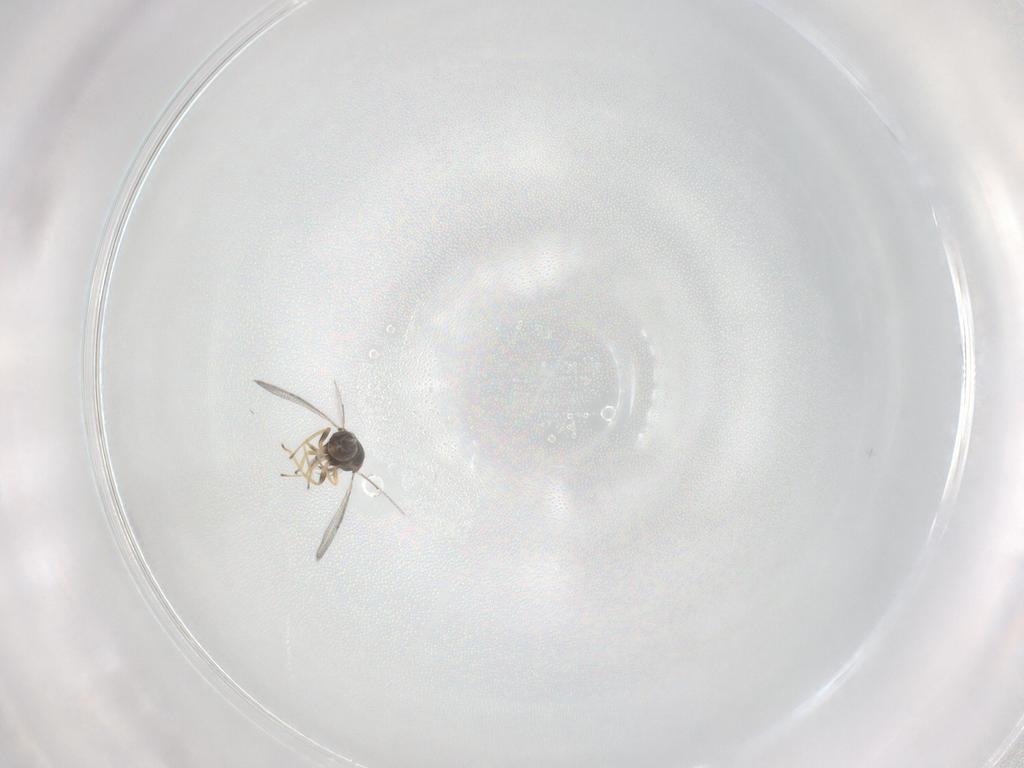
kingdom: Animalia
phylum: Arthropoda
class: Insecta
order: Hymenoptera
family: Eulophidae
